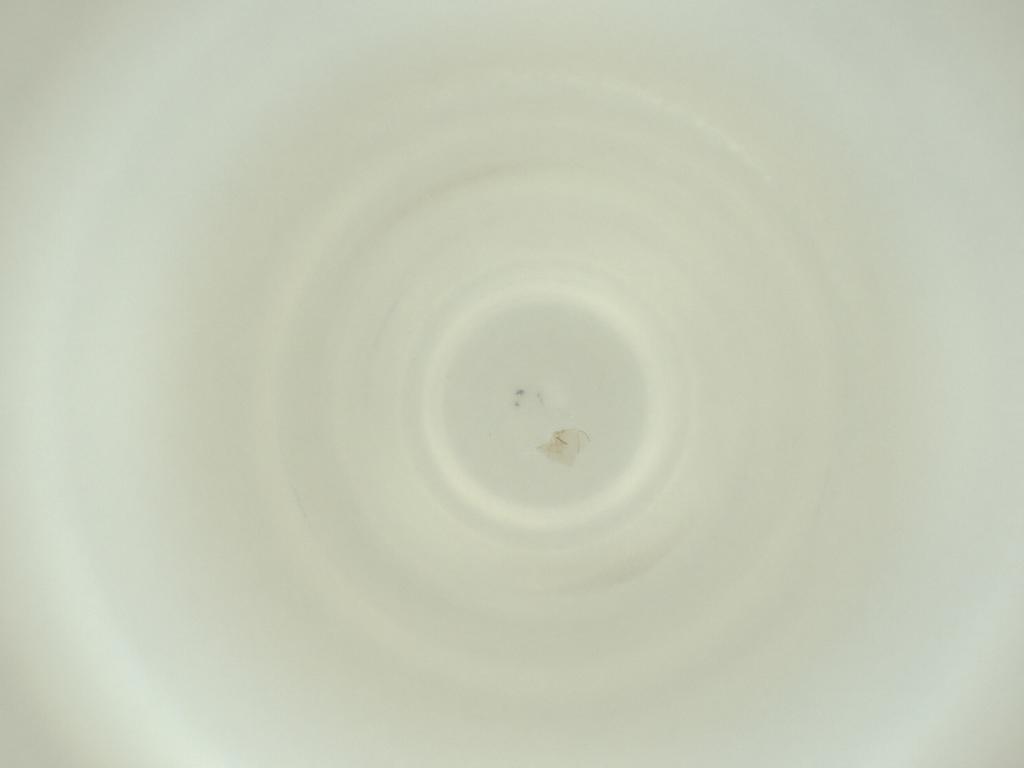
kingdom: Animalia
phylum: Arthropoda
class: Insecta
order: Diptera
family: Cecidomyiidae
